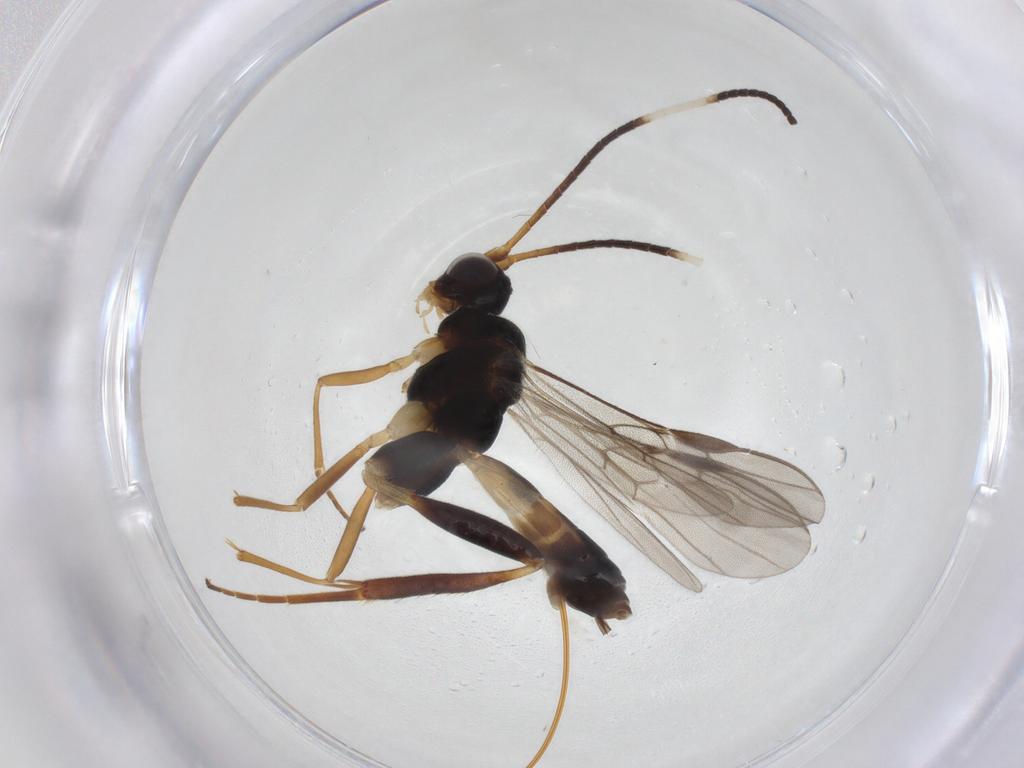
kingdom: Animalia
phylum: Arthropoda
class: Insecta
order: Hymenoptera
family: Braconidae
